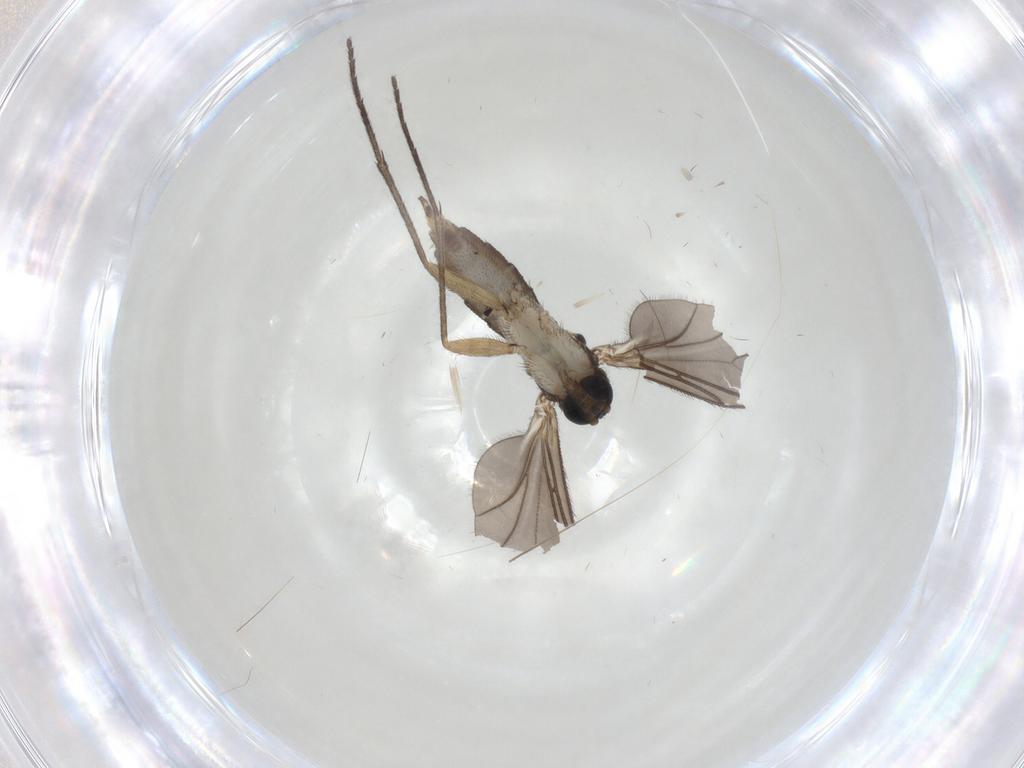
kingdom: Animalia
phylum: Arthropoda
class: Insecta
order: Diptera
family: Sciaridae
